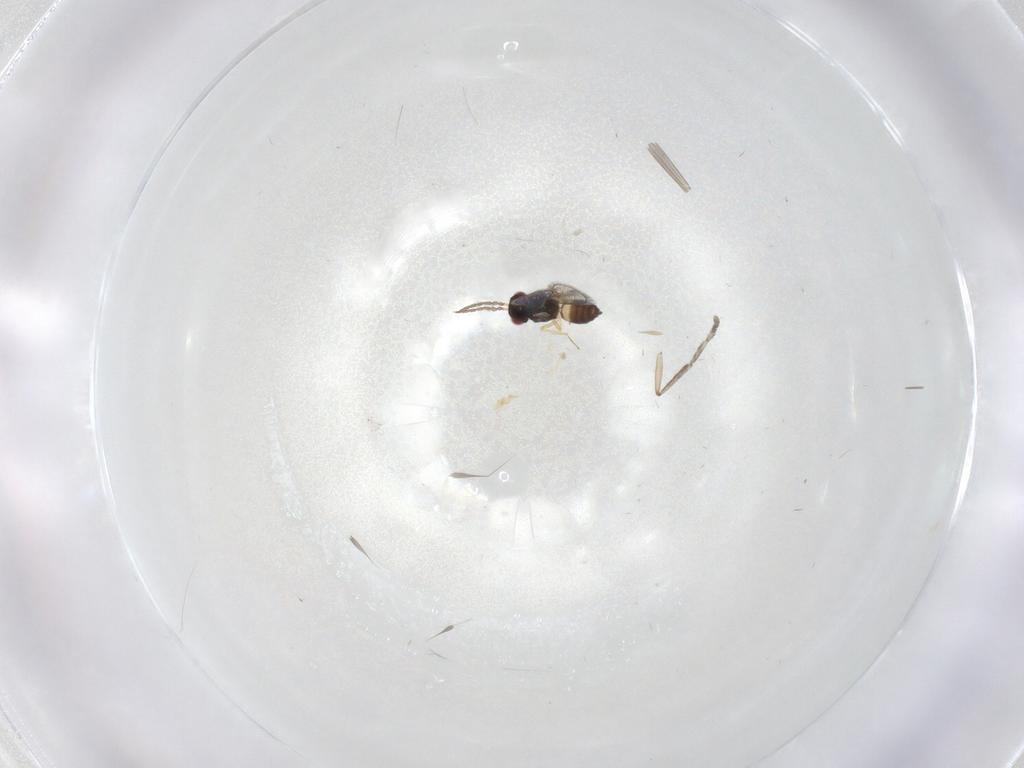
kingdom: Animalia
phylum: Arthropoda
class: Insecta
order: Hymenoptera
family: Eulophidae
